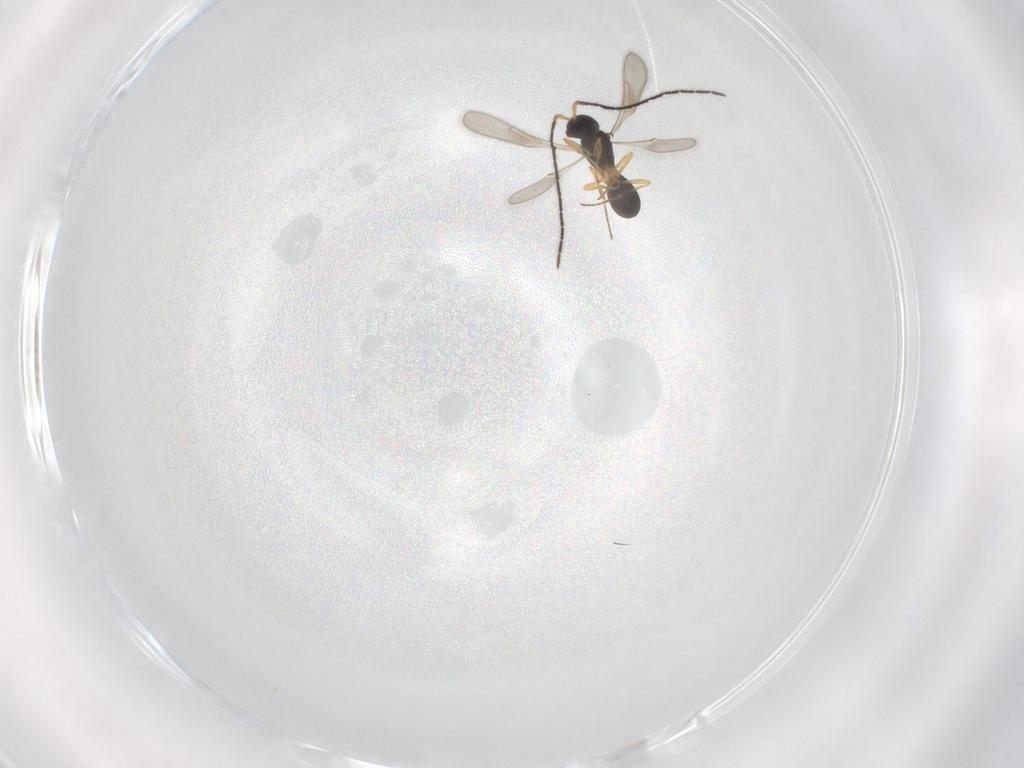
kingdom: Animalia
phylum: Arthropoda
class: Insecta
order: Hymenoptera
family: Scelionidae
